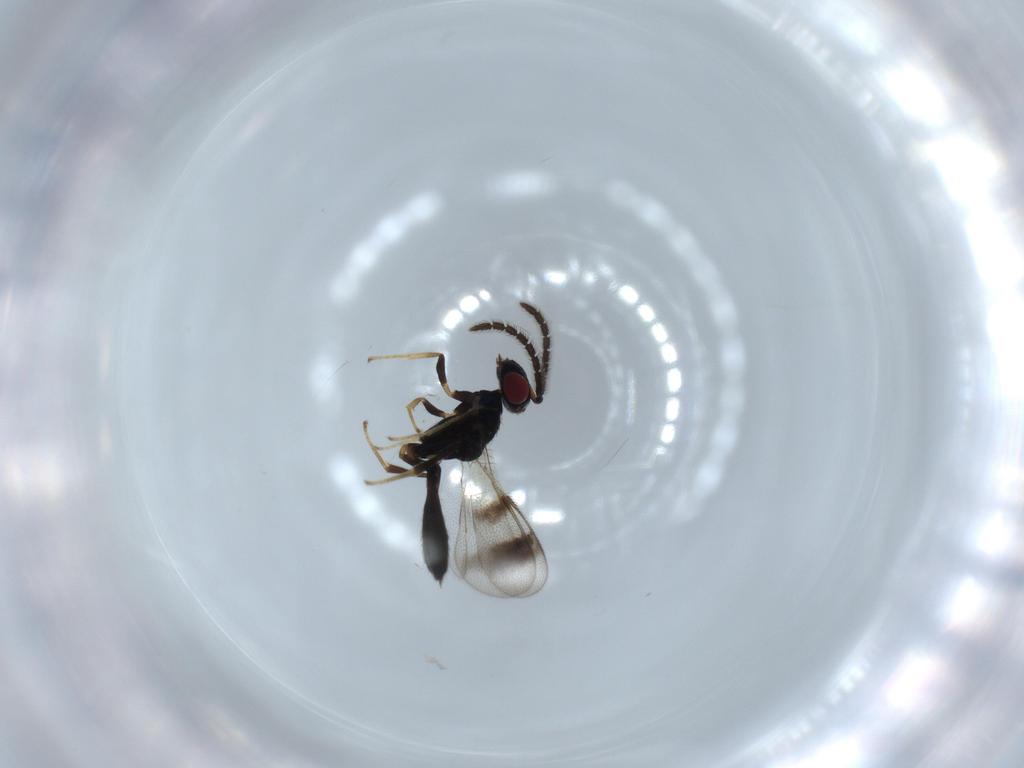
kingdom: Animalia
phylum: Arthropoda
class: Insecta
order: Hymenoptera
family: Pteromalidae
